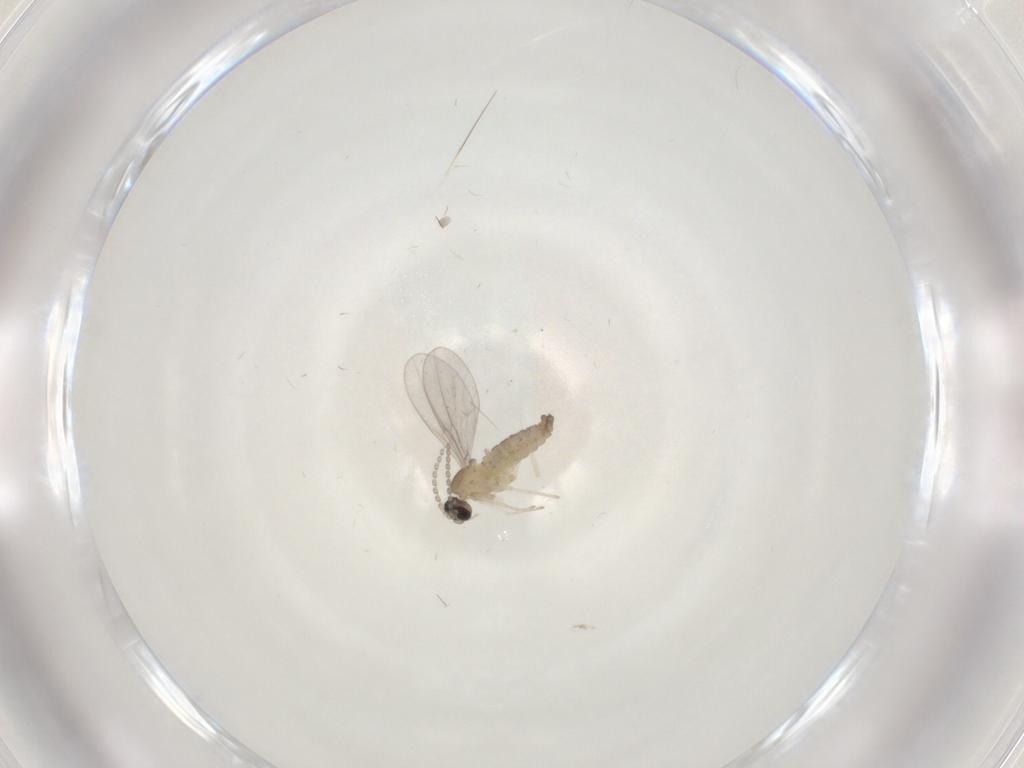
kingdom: Animalia
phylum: Arthropoda
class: Insecta
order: Diptera
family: Cecidomyiidae
